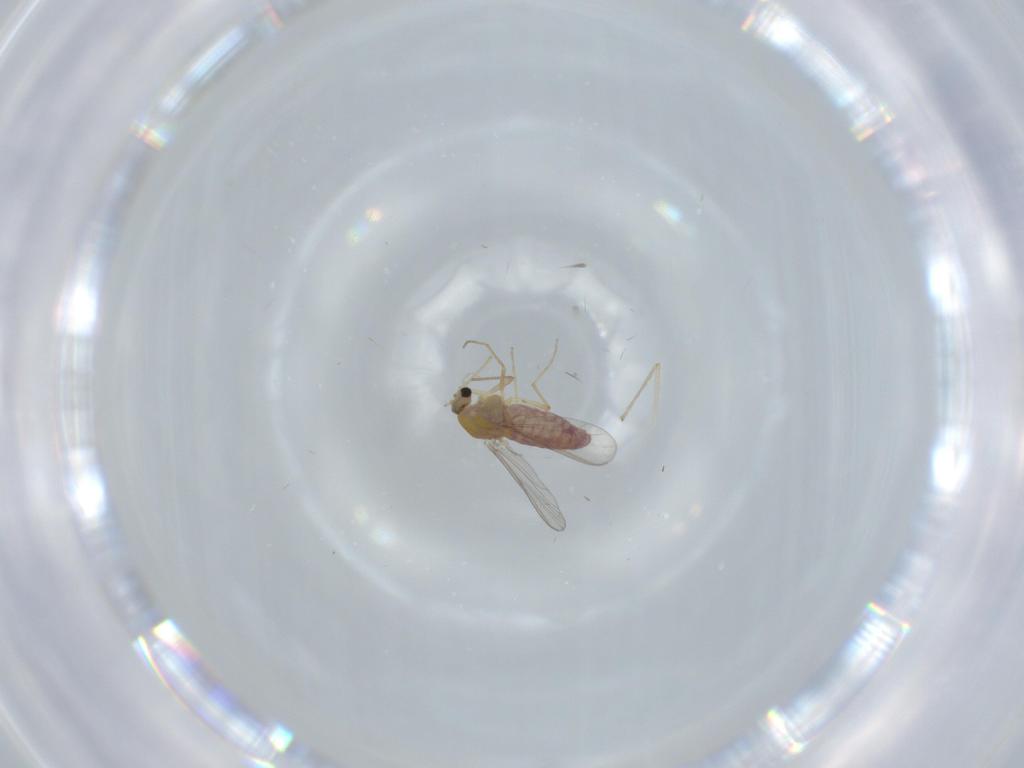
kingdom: Animalia
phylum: Arthropoda
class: Insecta
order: Diptera
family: Chironomidae
